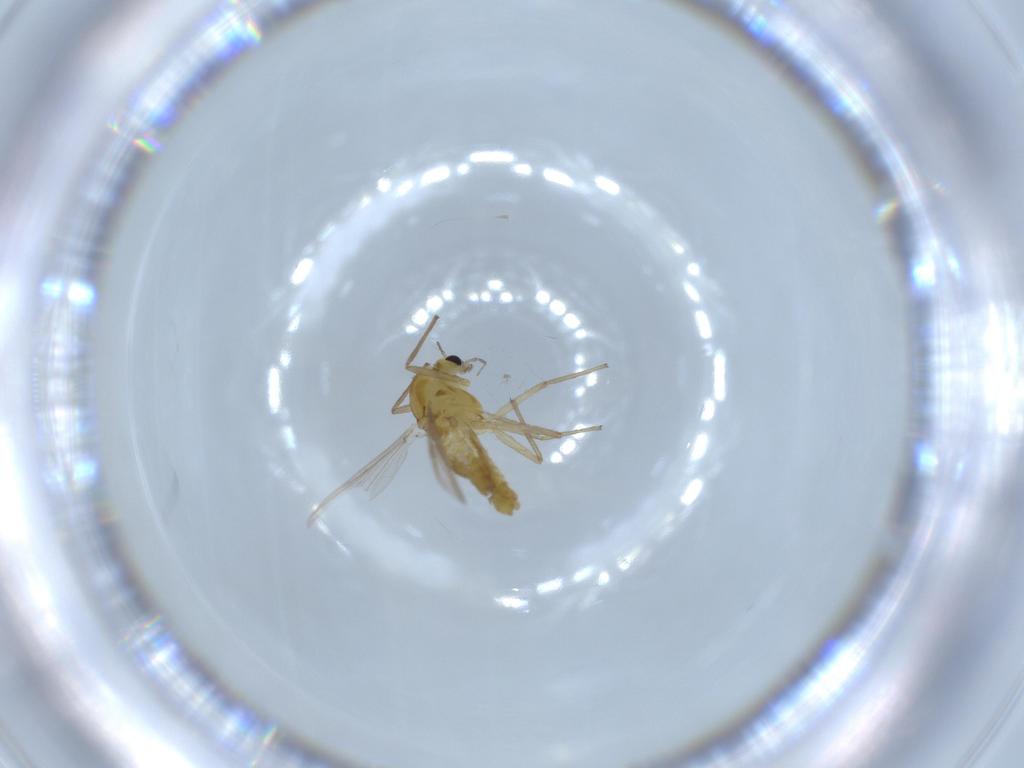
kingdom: Animalia
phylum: Arthropoda
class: Insecta
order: Diptera
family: Chironomidae
